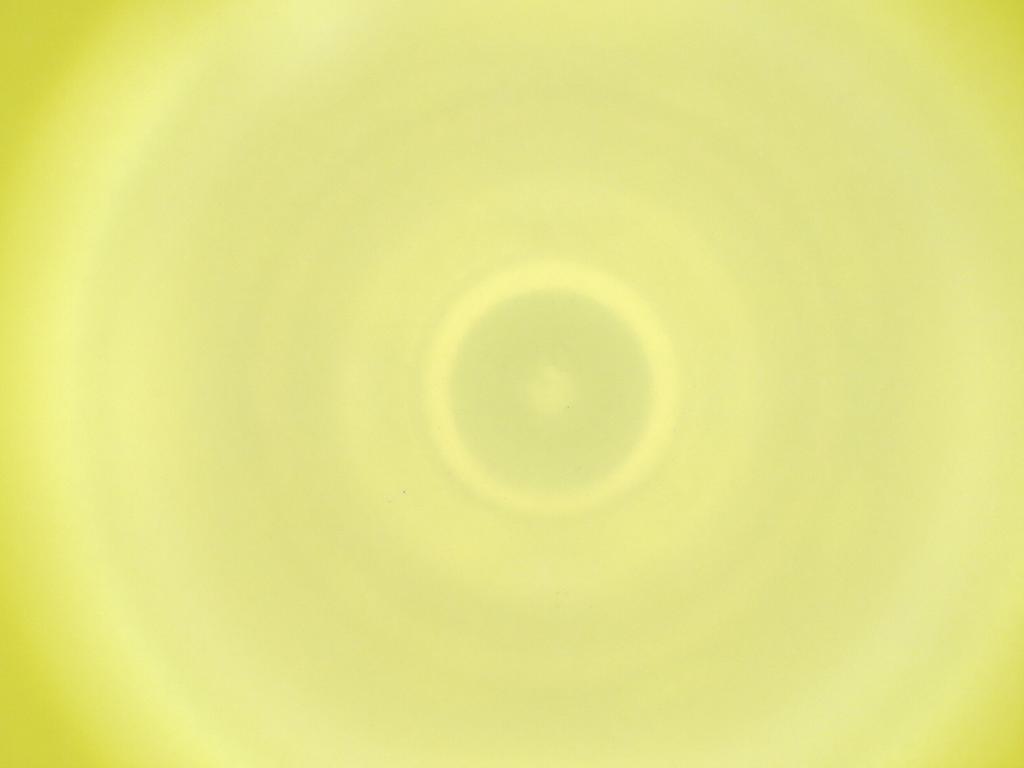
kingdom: Animalia
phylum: Arthropoda
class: Insecta
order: Diptera
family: Cecidomyiidae
